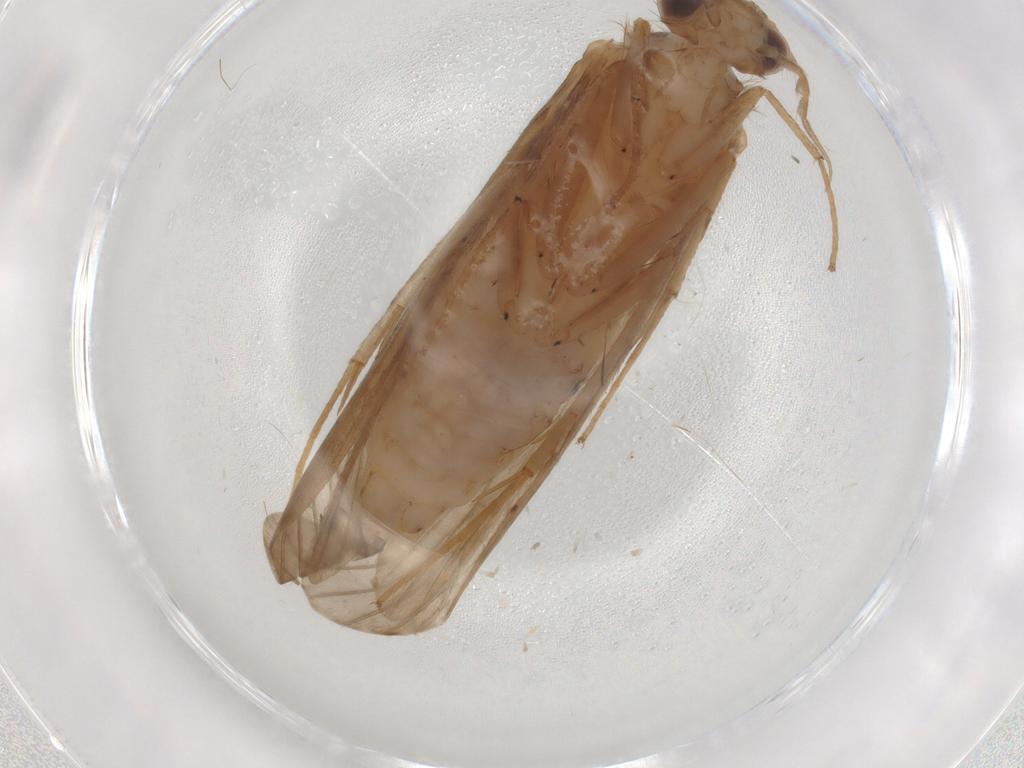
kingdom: Animalia
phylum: Arthropoda
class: Insecta
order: Trichoptera
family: Hydropsychidae
